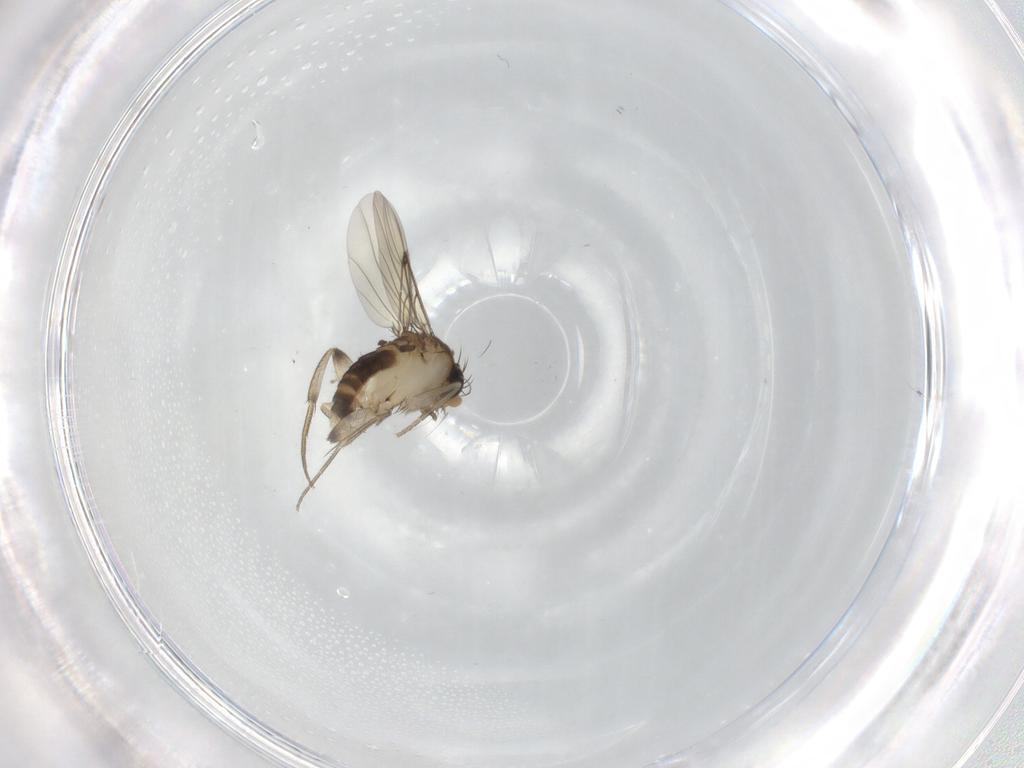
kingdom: Animalia
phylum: Arthropoda
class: Insecta
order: Diptera
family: Phoridae
